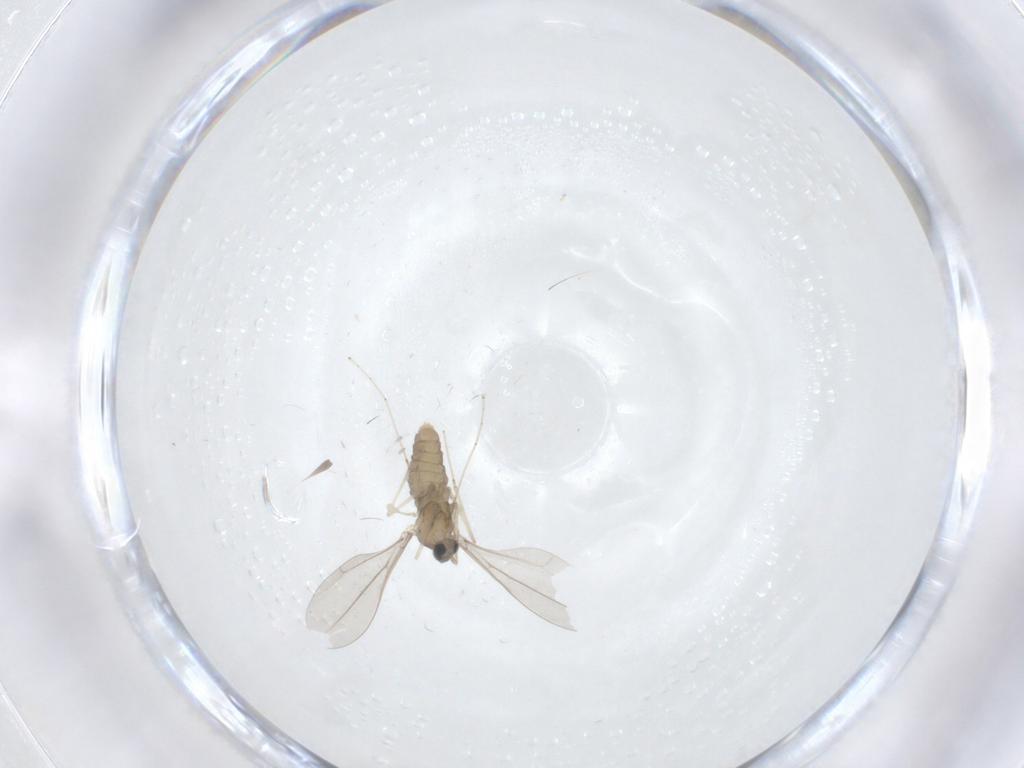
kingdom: Animalia
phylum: Arthropoda
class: Insecta
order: Diptera
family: Cecidomyiidae
